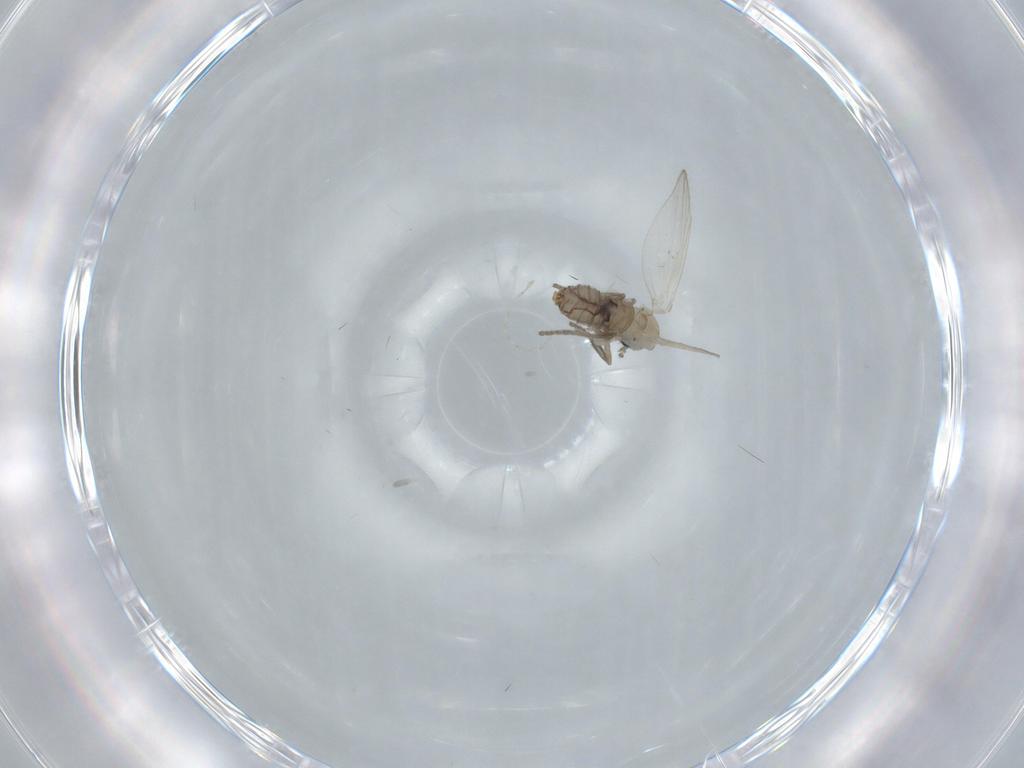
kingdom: Animalia
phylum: Arthropoda
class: Insecta
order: Diptera
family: Psychodidae
